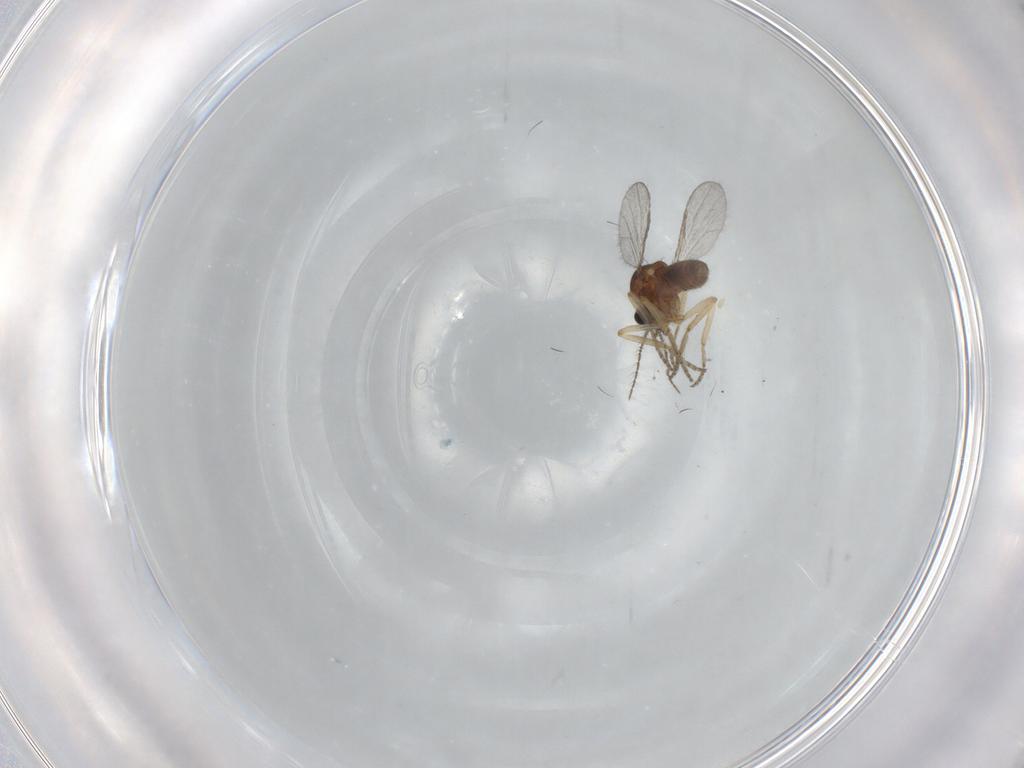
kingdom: Animalia
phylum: Arthropoda
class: Insecta
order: Diptera
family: Ceratopogonidae
